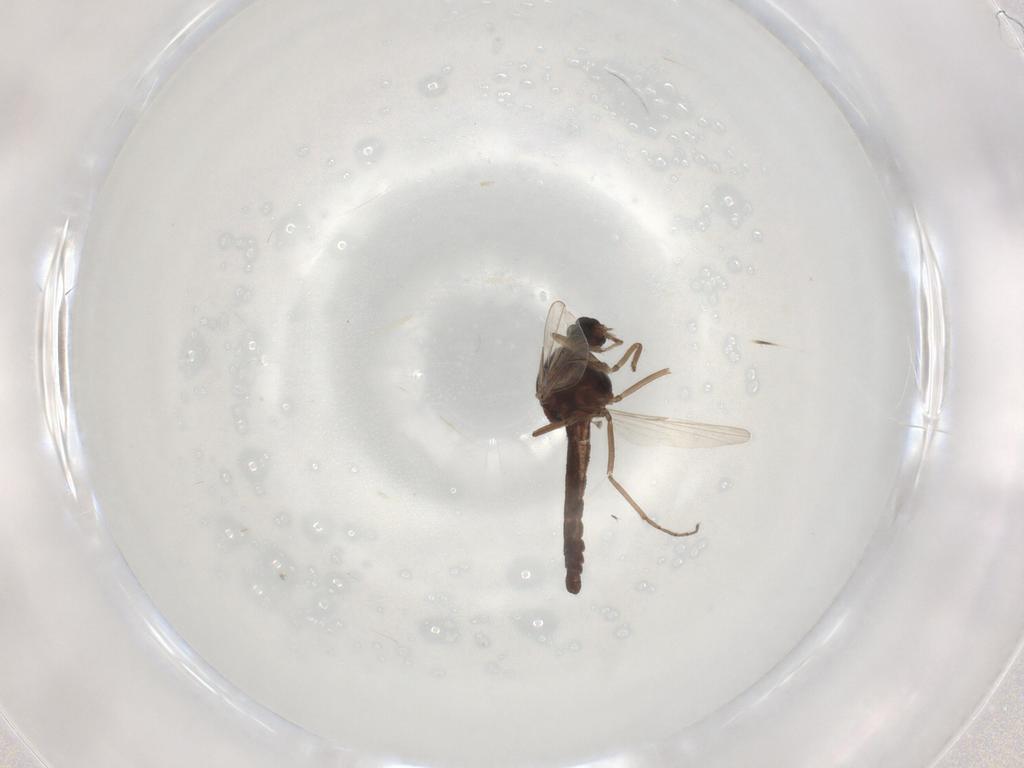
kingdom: Animalia
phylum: Arthropoda
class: Insecta
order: Diptera
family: Ceratopogonidae
